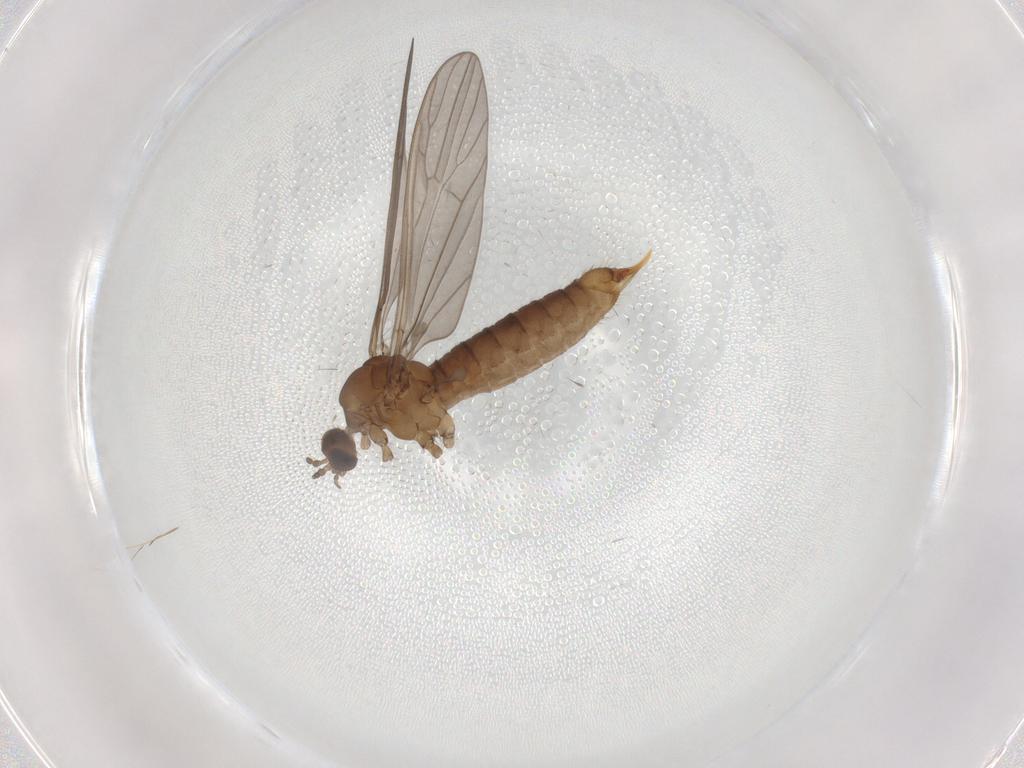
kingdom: Animalia
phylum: Arthropoda
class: Insecta
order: Diptera
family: Limoniidae
